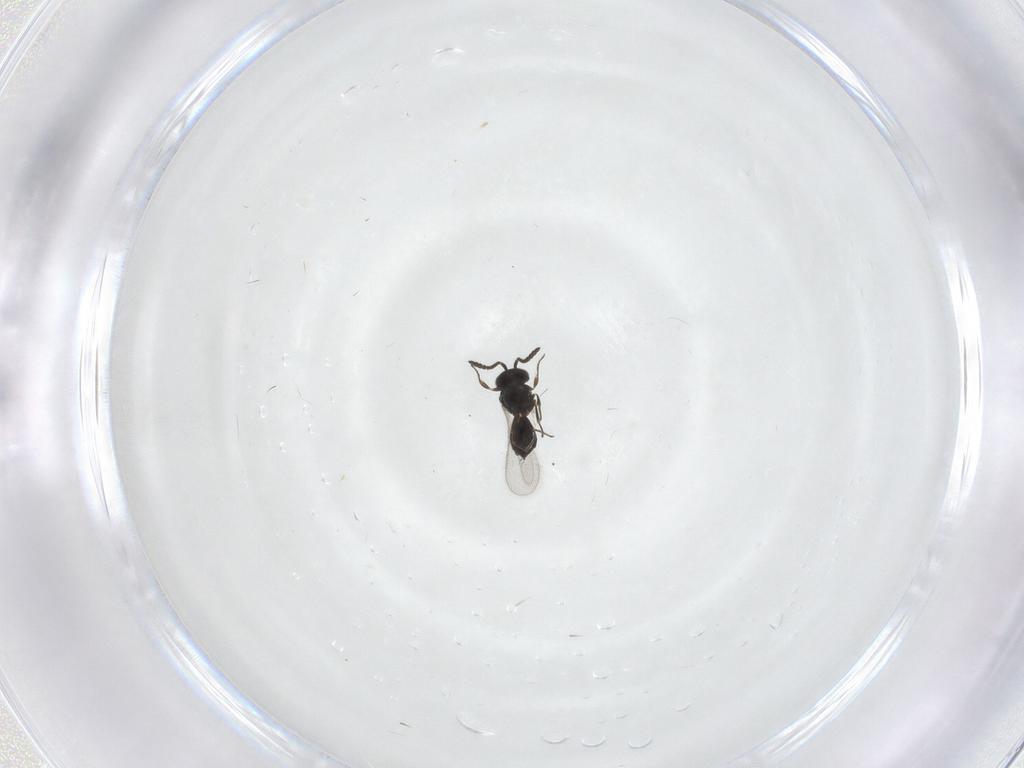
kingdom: Animalia
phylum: Arthropoda
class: Insecta
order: Hymenoptera
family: Scelionidae
